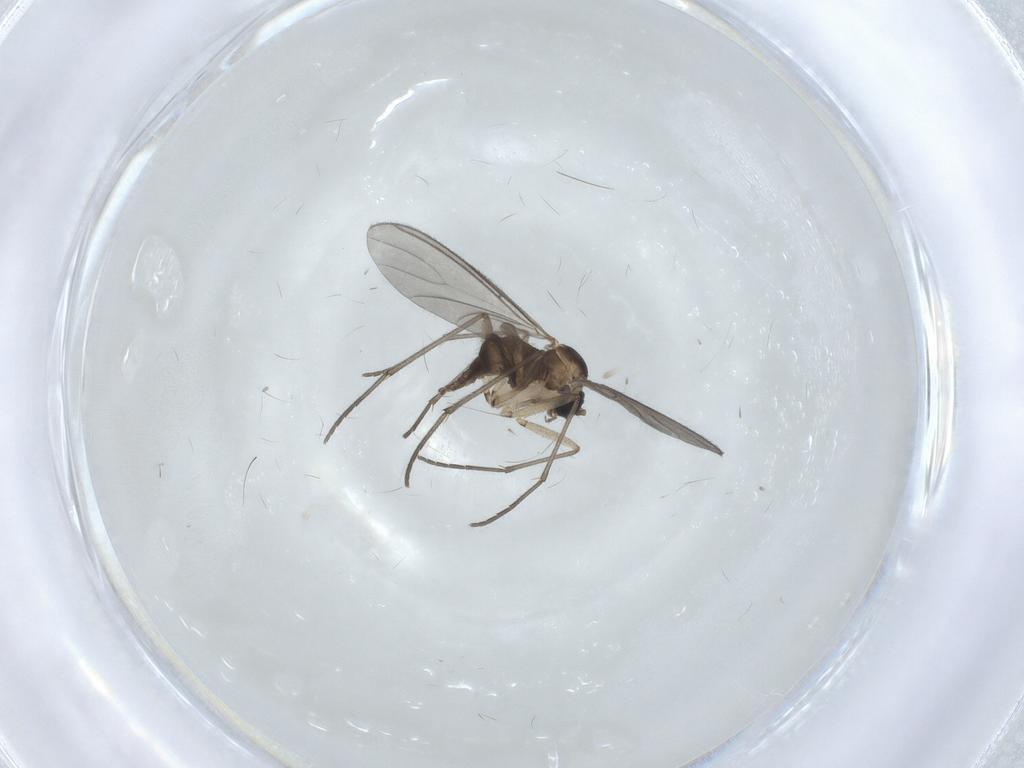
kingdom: Animalia
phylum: Arthropoda
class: Insecta
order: Diptera
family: Sciaridae
